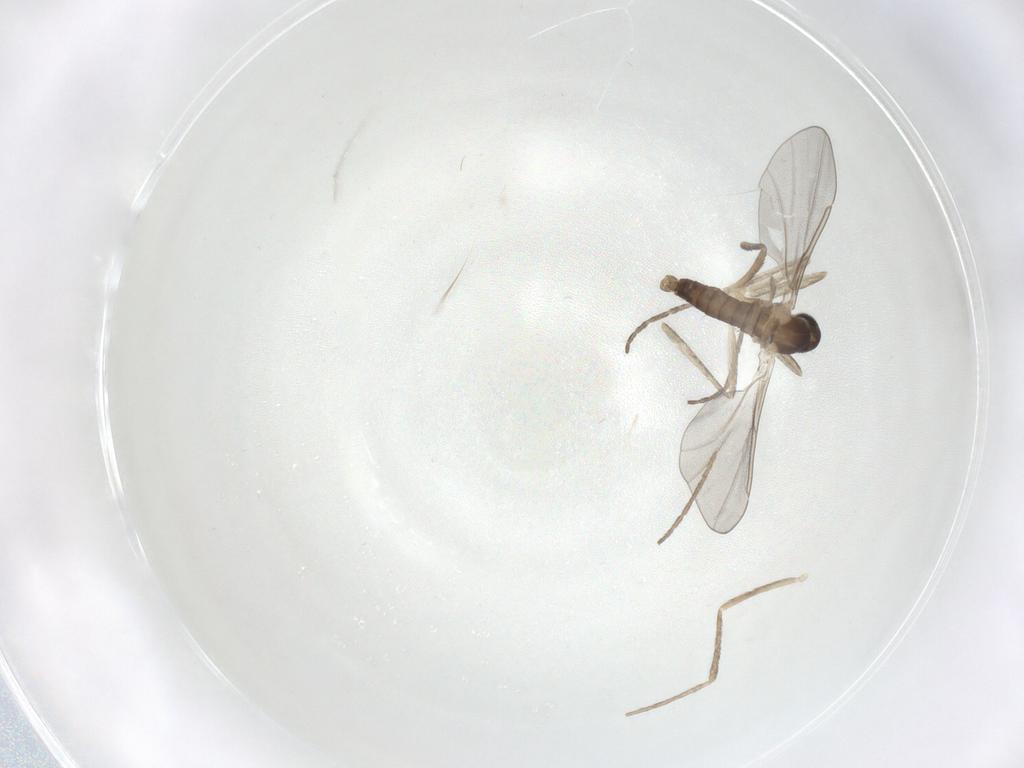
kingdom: Animalia
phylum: Arthropoda
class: Insecta
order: Diptera
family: Cecidomyiidae
